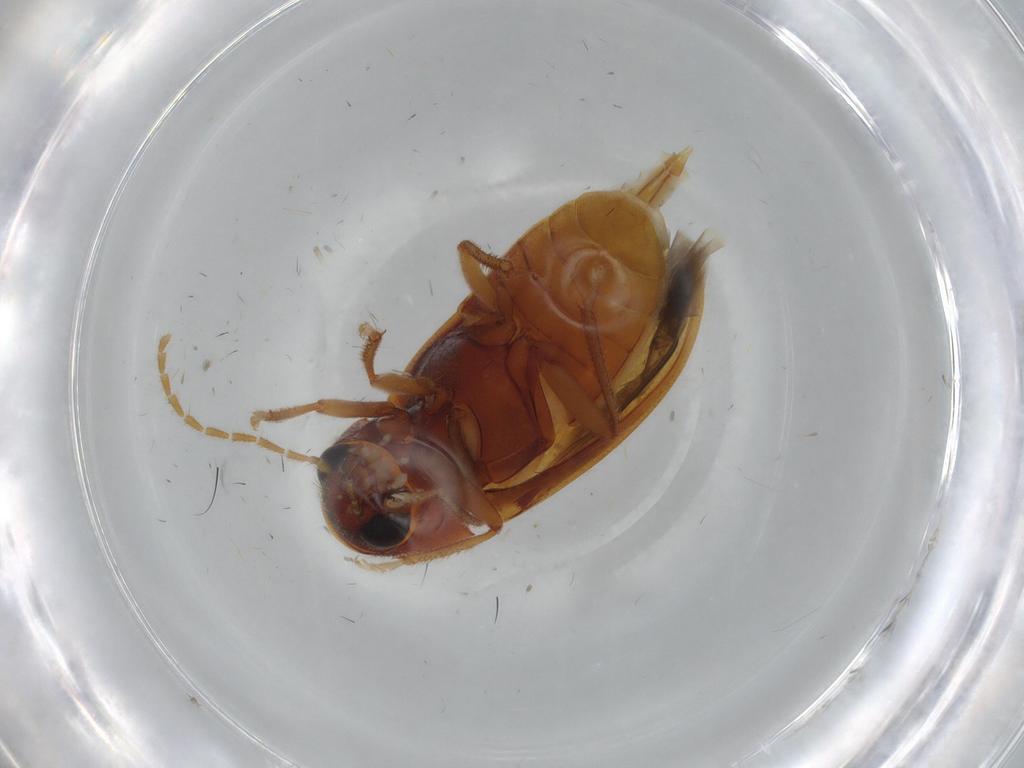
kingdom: Animalia
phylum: Arthropoda
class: Insecta
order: Coleoptera
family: Ptilodactylidae
